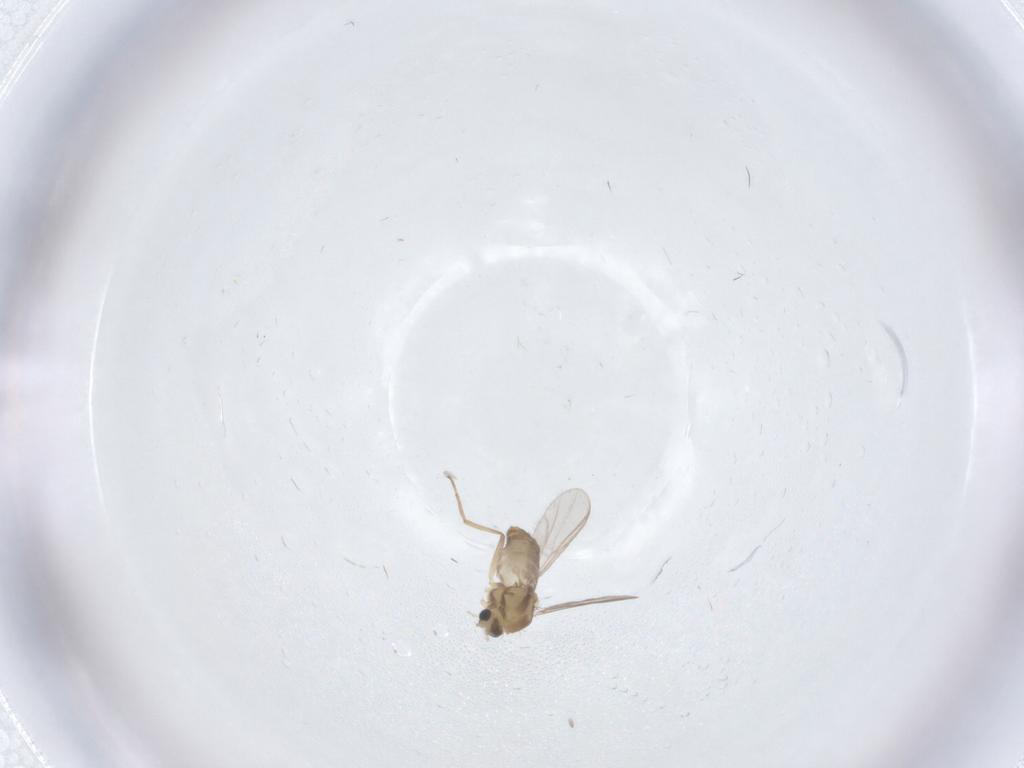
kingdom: Animalia
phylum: Arthropoda
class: Insecta
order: Diptera
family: Chironomidae
